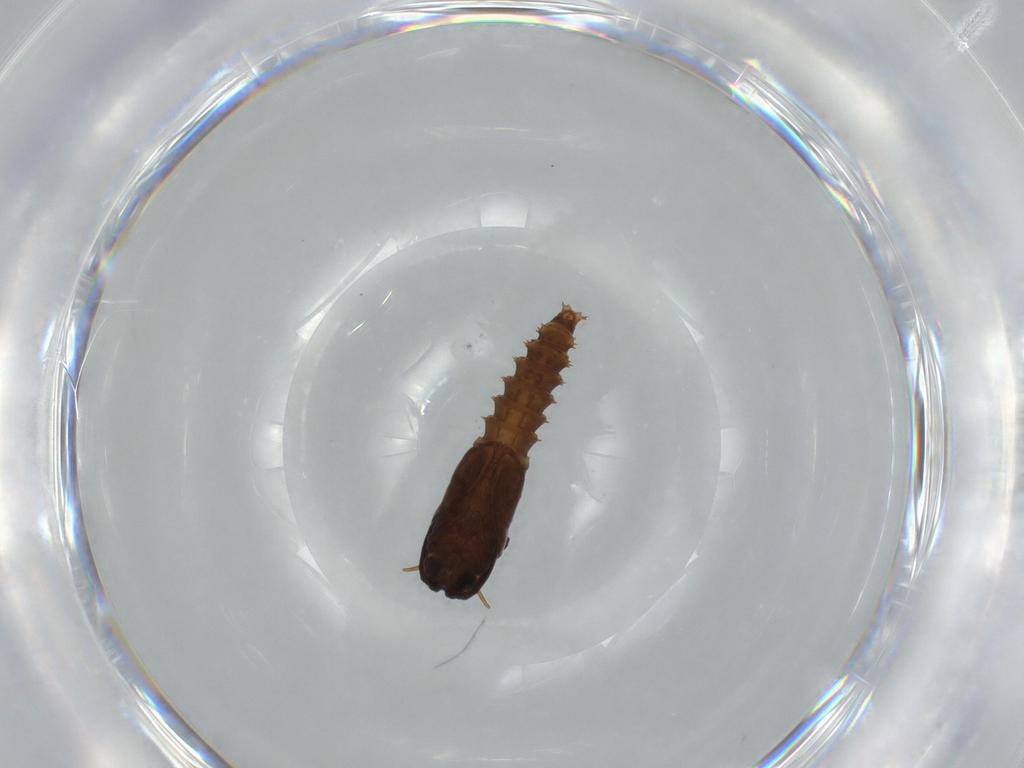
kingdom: Animalia
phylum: Arthropoda
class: Insecta
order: Diptera
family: Ceratopogonidae
